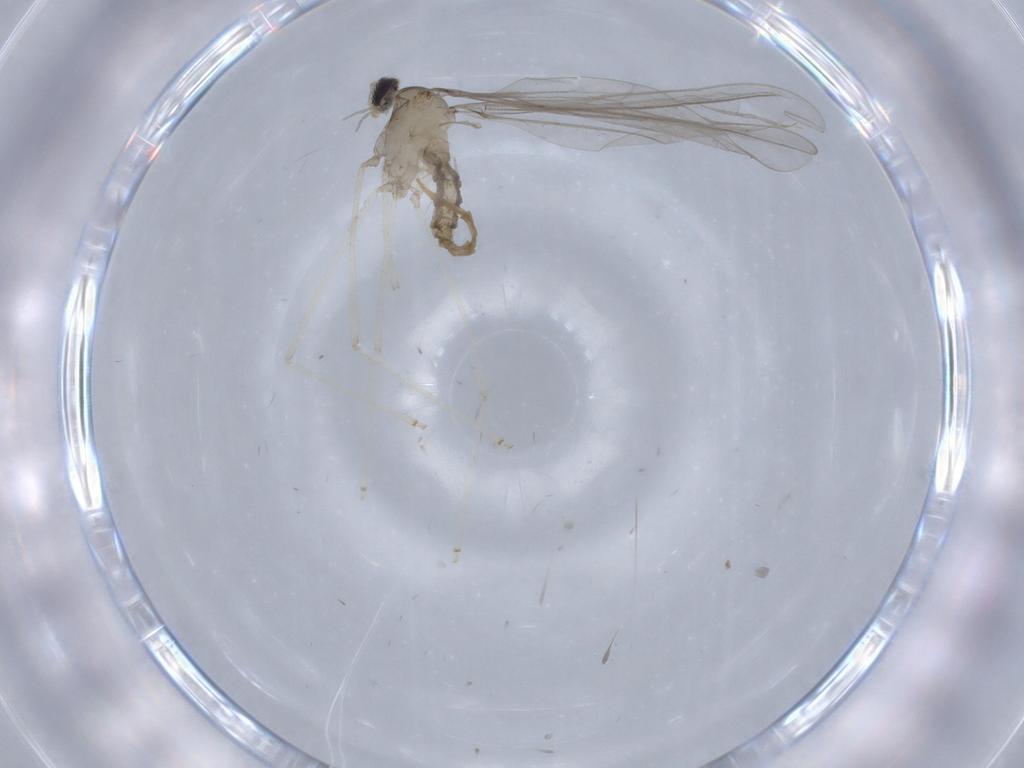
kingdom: Animalia
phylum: Arthropoda
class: Insecta
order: Diptera
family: Cecidomyiidae
